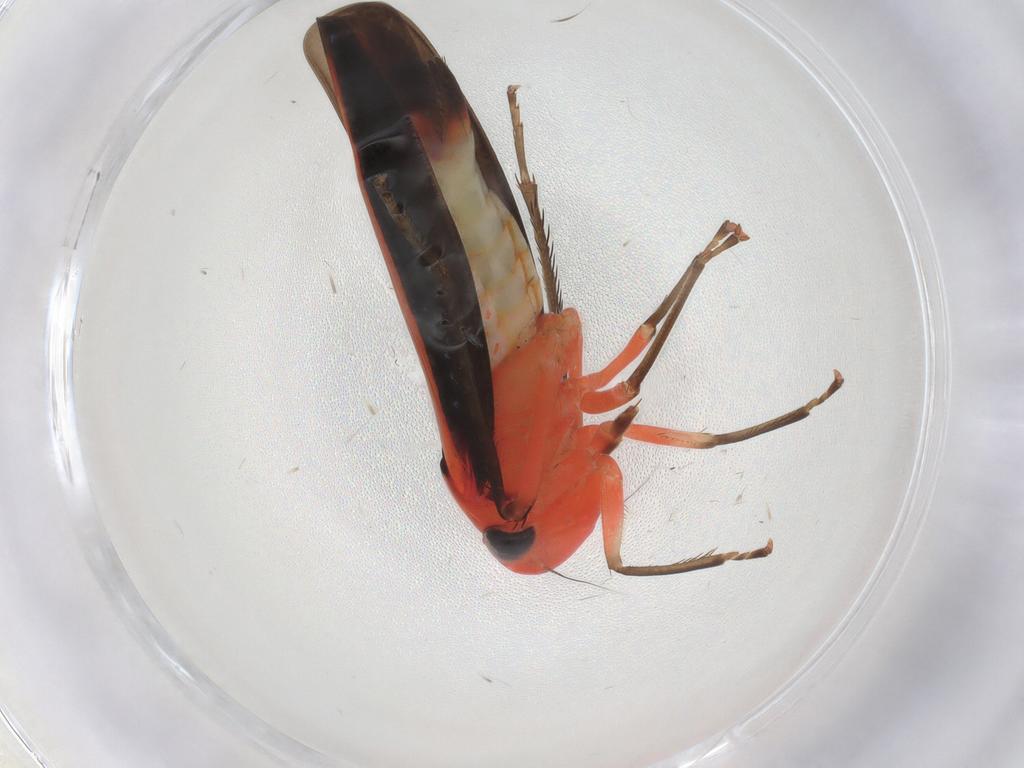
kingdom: Animalia
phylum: Arthropoda
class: Insecta
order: Hemiptera
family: Cicadellidae
